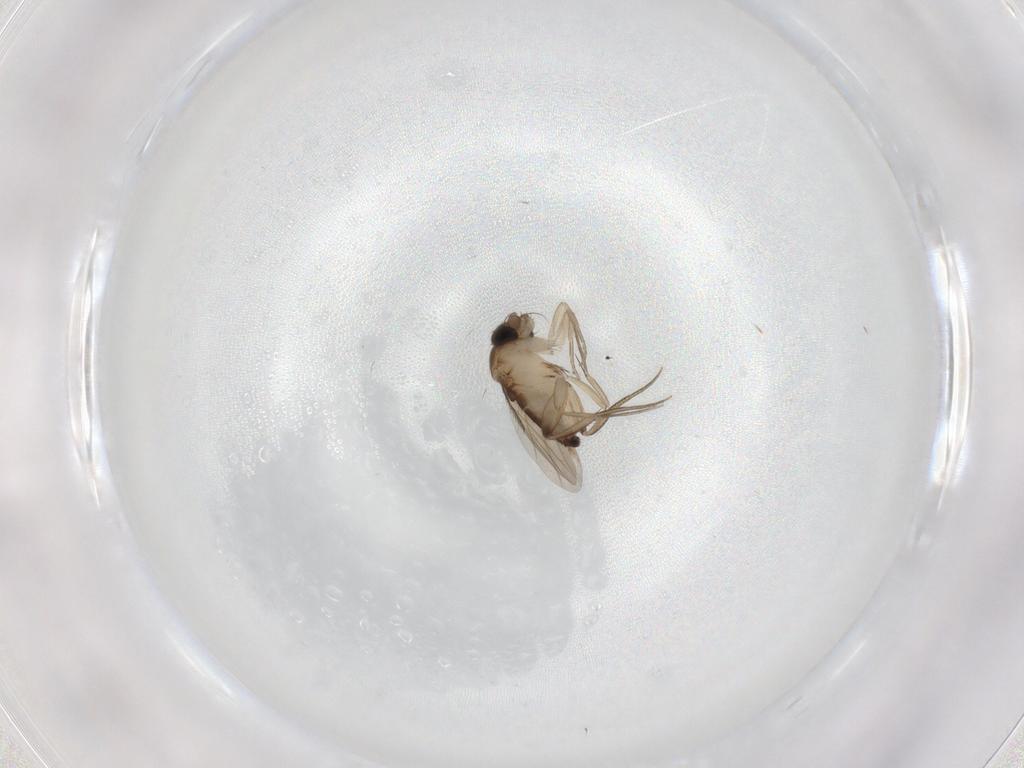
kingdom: Animalia
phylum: Arthropoda
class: Insecta
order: Diptera
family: Phoridae
